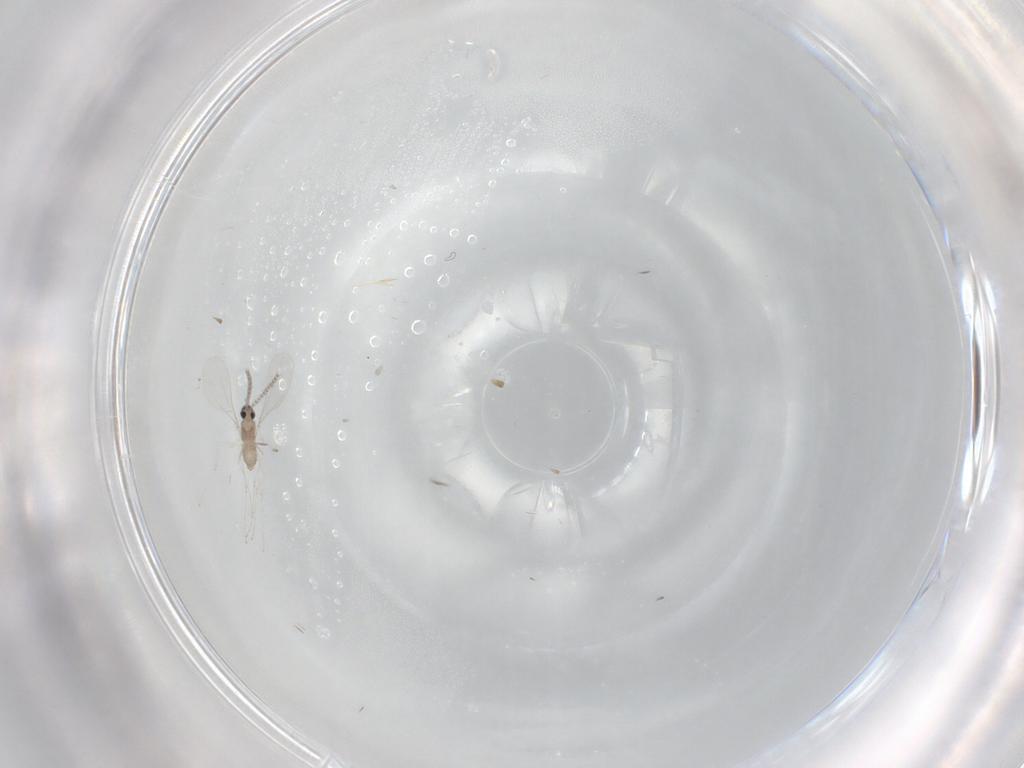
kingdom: Animalia
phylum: Arthropoda
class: Insecta
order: Diptera
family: Cecidomyiidae
